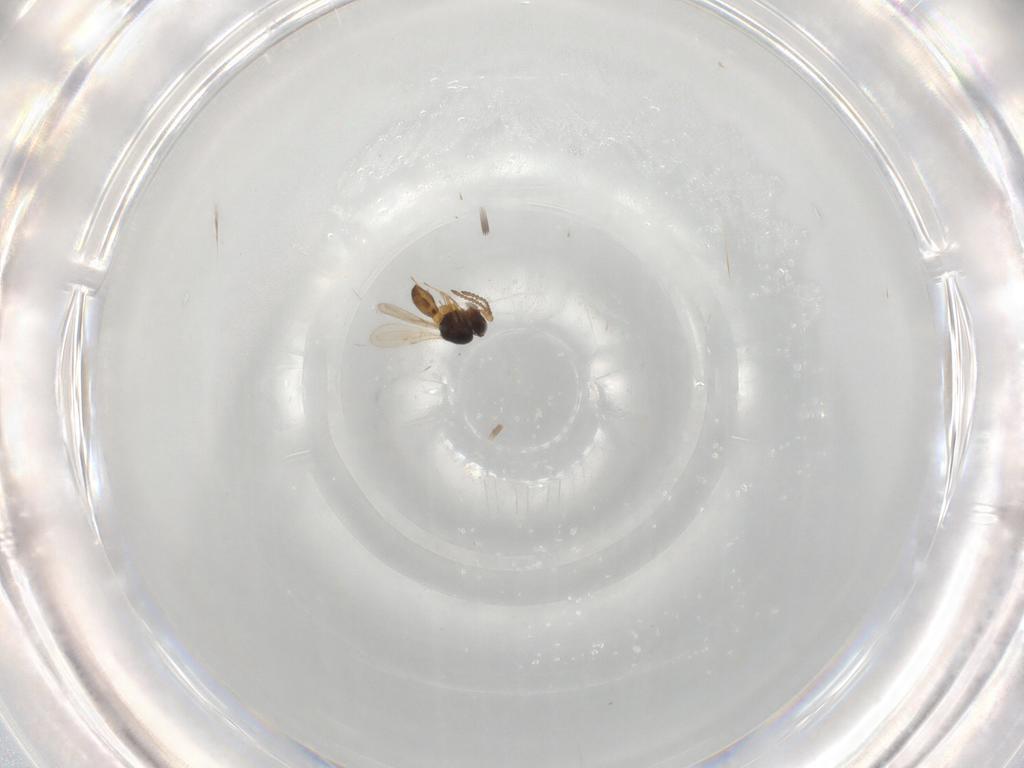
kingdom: Animalia
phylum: Arthropoda
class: Insecta
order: Hymenoptera
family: Scelionidae
